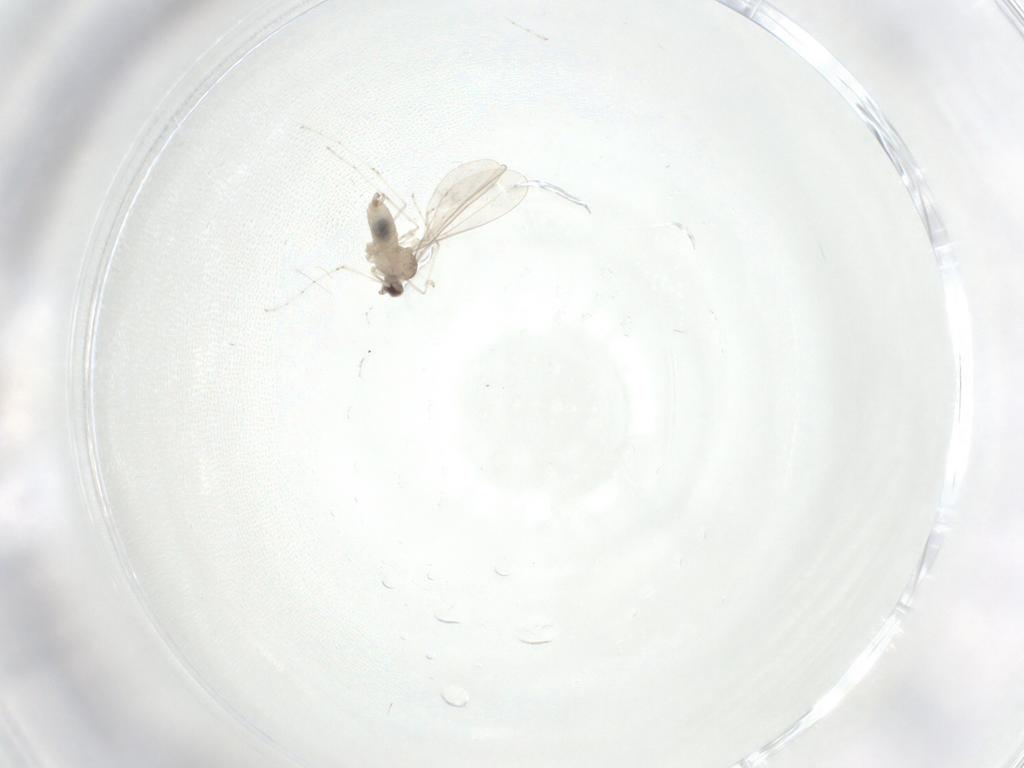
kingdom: Animalia
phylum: Arthropoda
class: Insecta
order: Diptera
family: Cecidomyiidae
